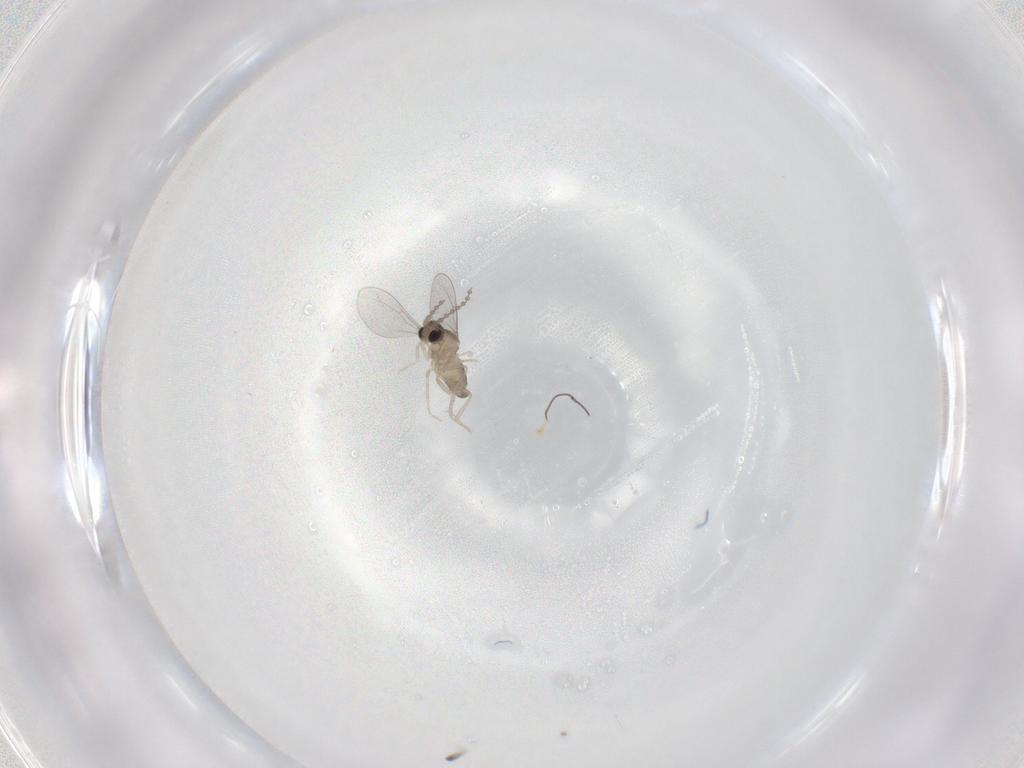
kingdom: Animalia
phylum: Arthropoda
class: Insecta
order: Diptera
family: Cecidomyiidae
